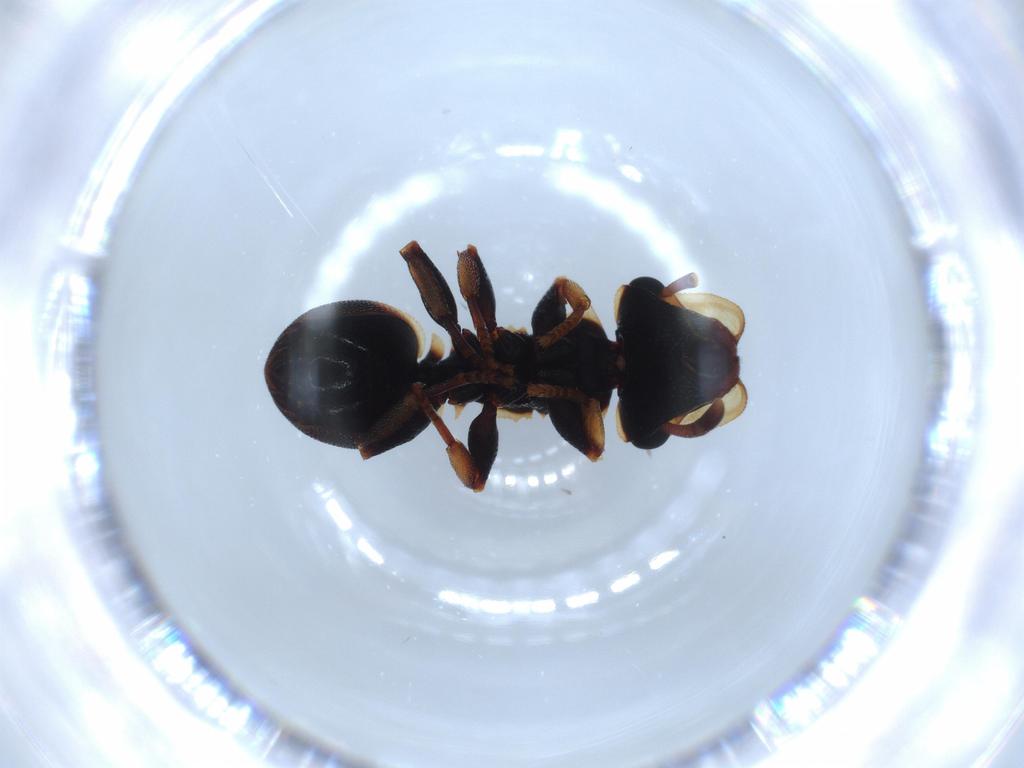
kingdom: Animalia
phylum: Arthropoda
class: Insecta
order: Hymenoptera
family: Formicidae
